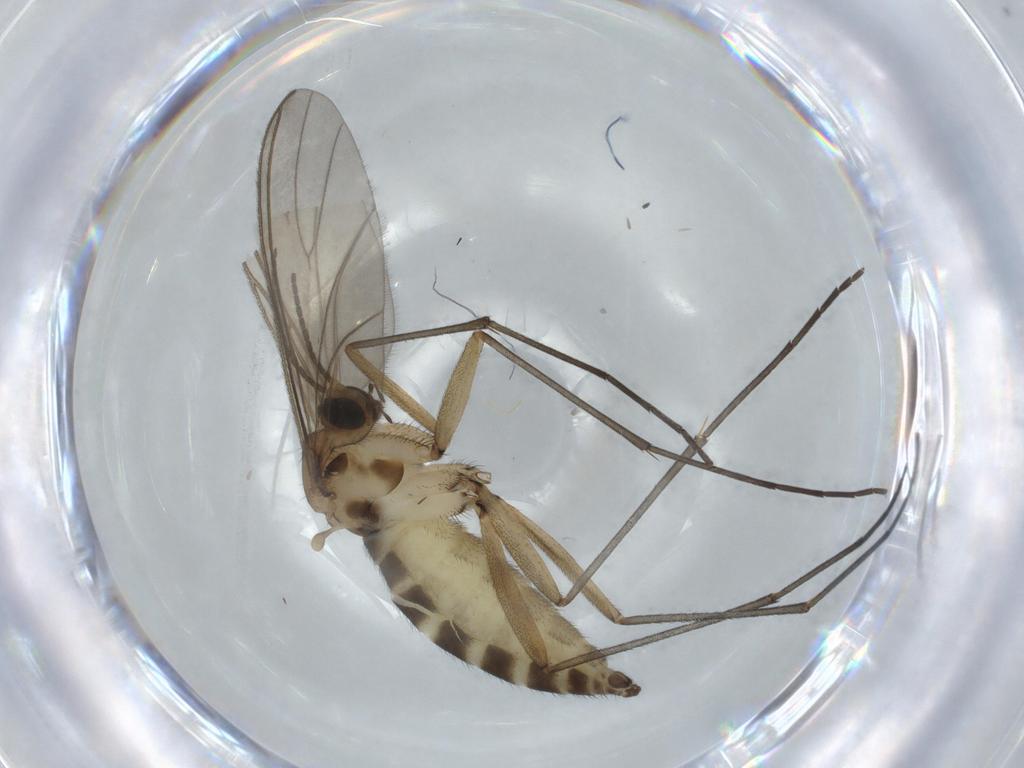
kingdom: Animalia
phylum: Arthropoda
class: Insecta
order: Diptera
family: Sciaridae
